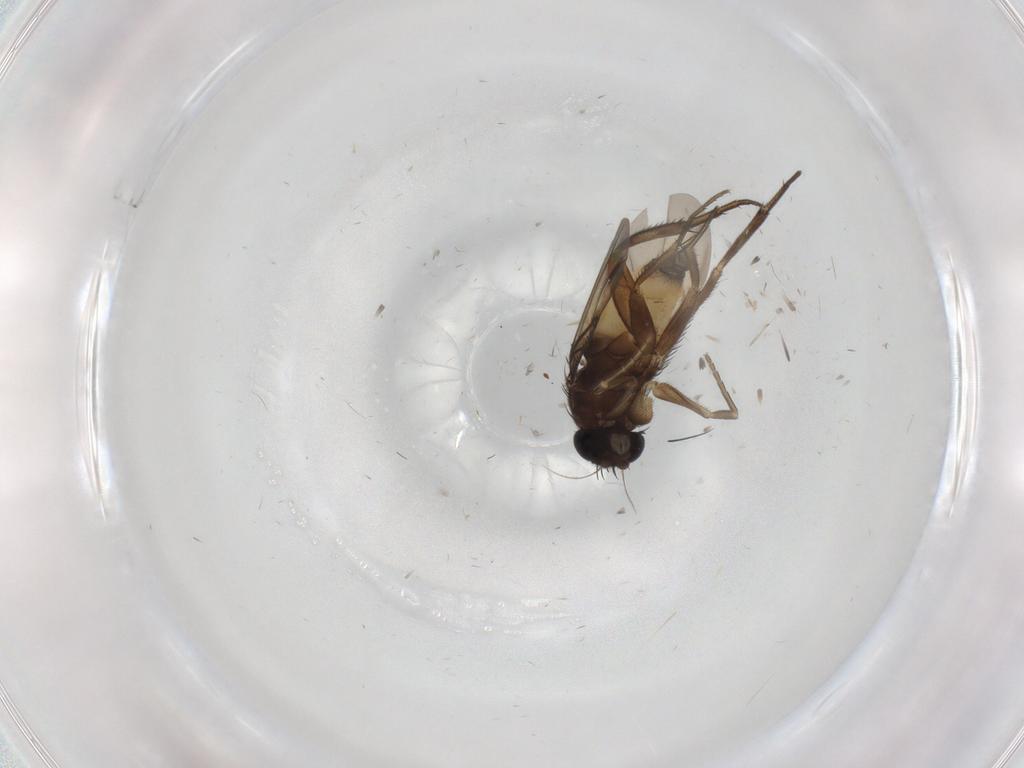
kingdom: Animalia
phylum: Arthropoda
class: Insecta
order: Diptera
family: Phoridae
